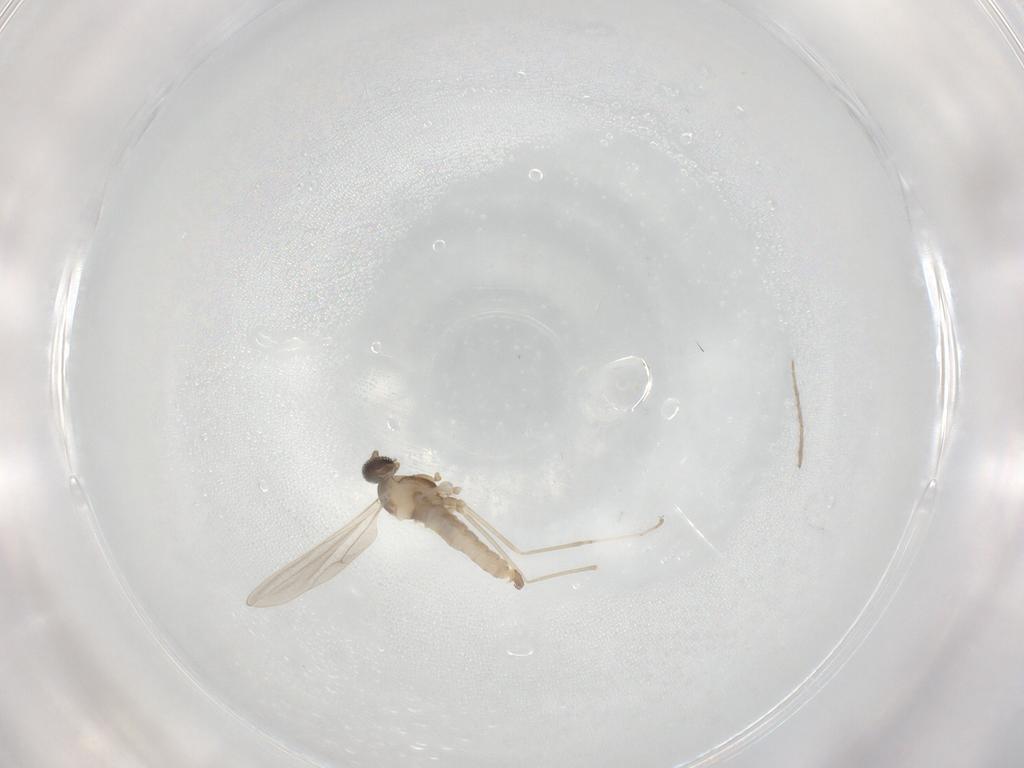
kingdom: Animalia
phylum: Arthropoda
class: Insecta
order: Diptera
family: Cecidomyiidae
